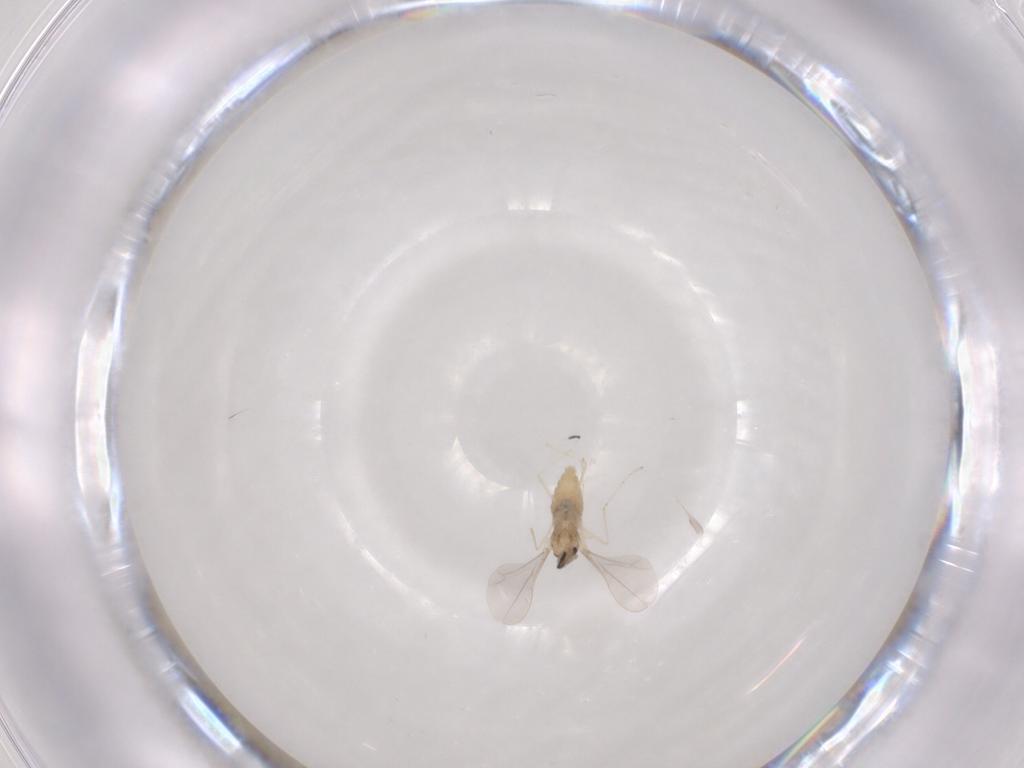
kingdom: Animalia
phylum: Arthropoda
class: Insecta
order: Diptera
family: Cecidomyiidae
